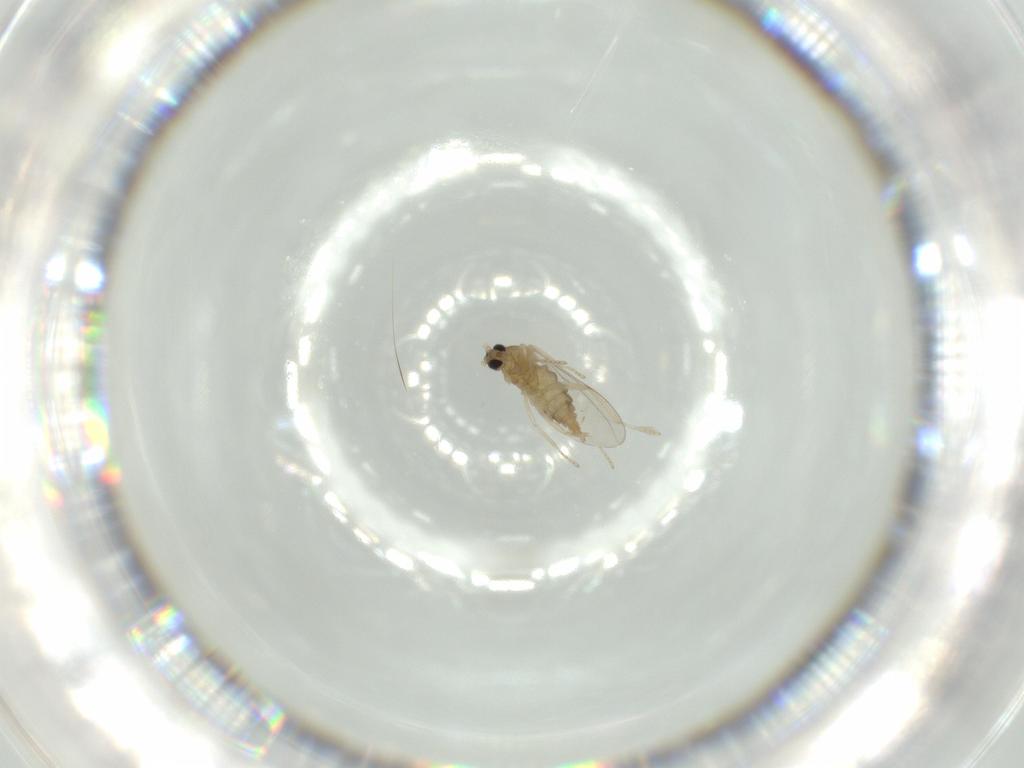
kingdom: Animalia
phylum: Arthropoda
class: Insecta
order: Diptera
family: Cecidomyiidae
